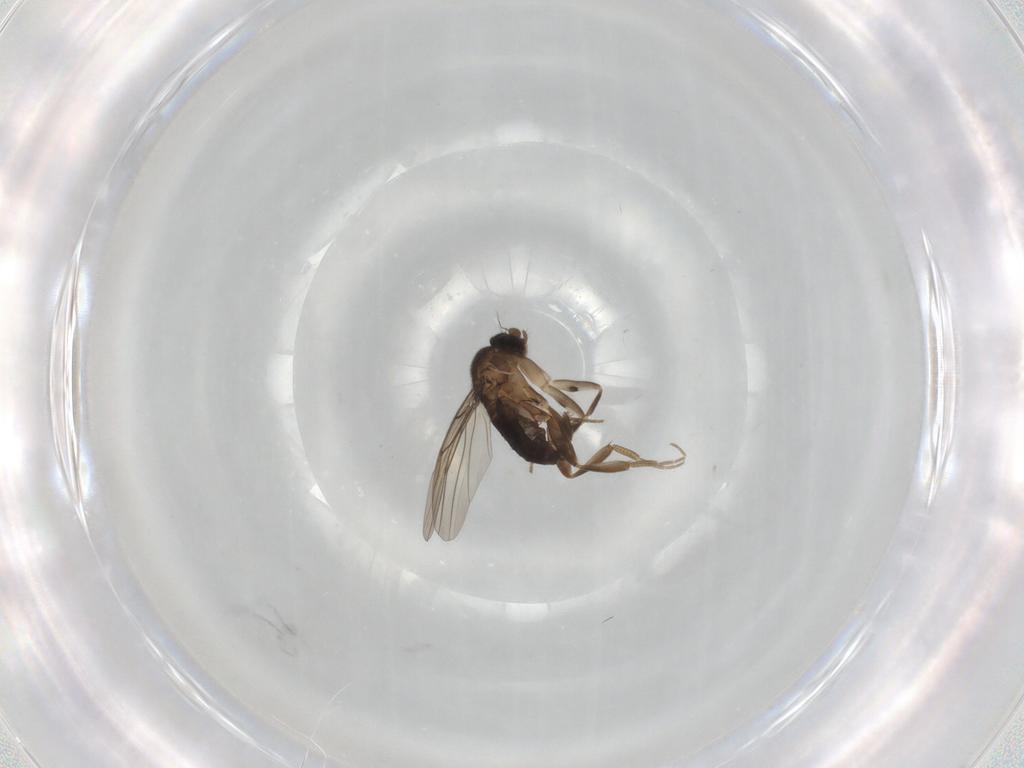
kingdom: Animalia
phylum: Arthropoda
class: Insecta
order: Diptera
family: Phoridae
